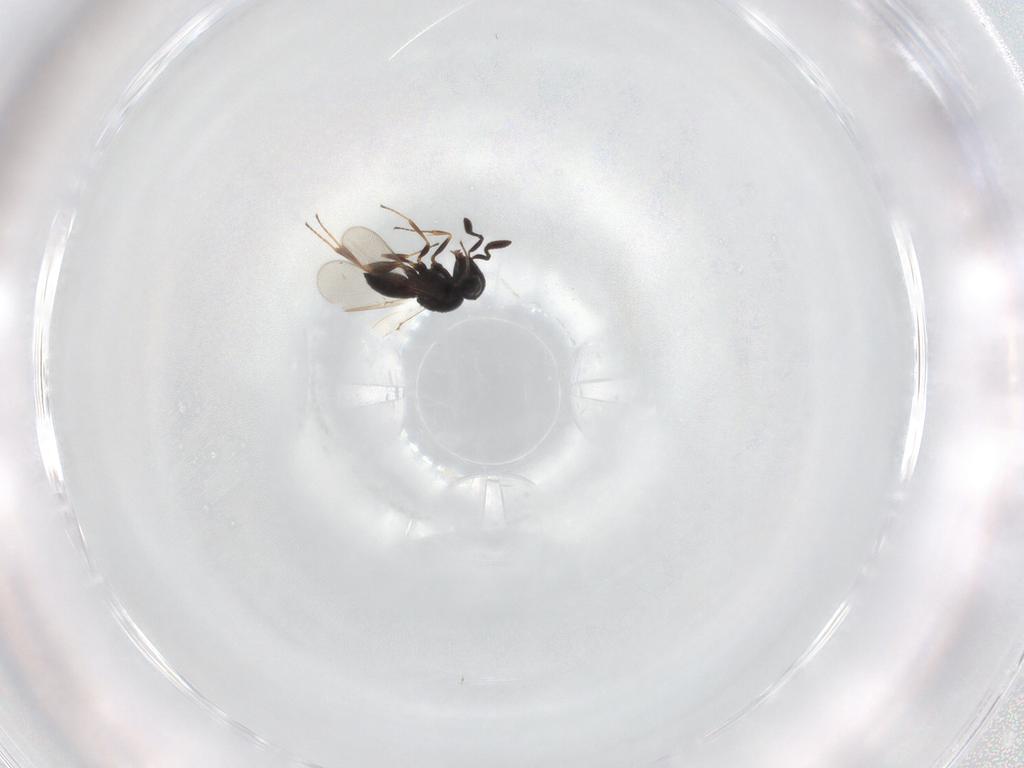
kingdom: Animalia
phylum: Arthropoda
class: Insecta
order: Hymenoptera
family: Scelionidae
